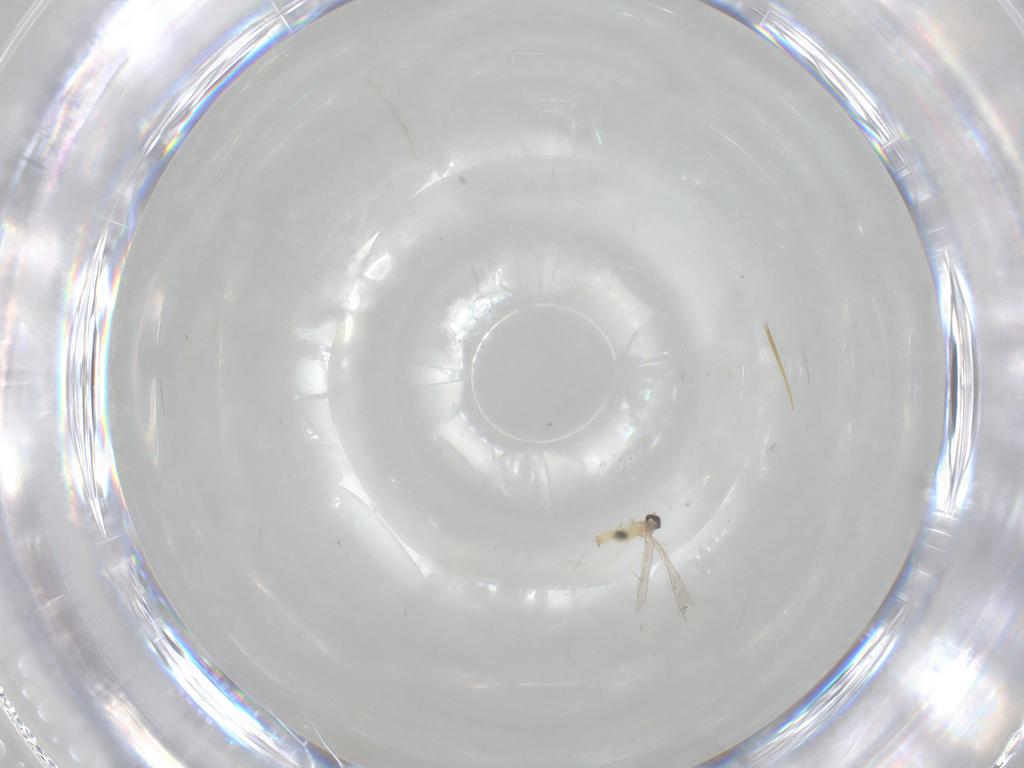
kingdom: Animalia
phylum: Arthropoda
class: Insecta
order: Diptera
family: Cecidomyiidae
